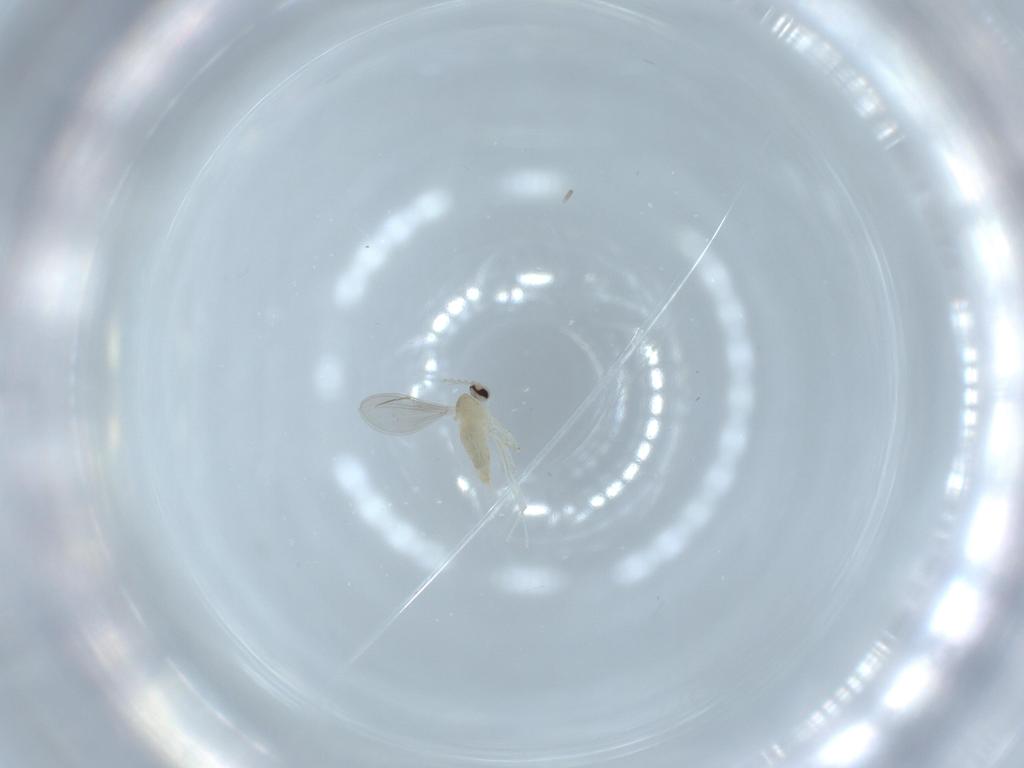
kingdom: Animalia
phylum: Arthropoda
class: Insecta
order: Diptera
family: Cecidomyiidae
